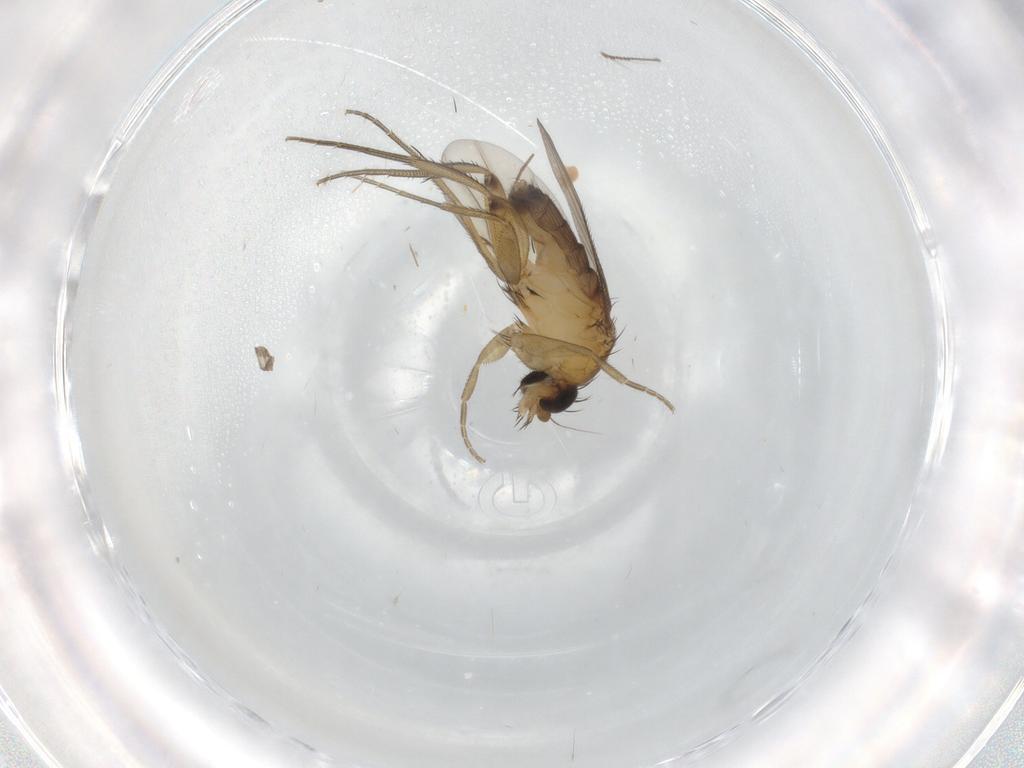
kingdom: Animalia
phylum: Arthropoda
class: Insecta
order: Diptera
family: Phoridae
